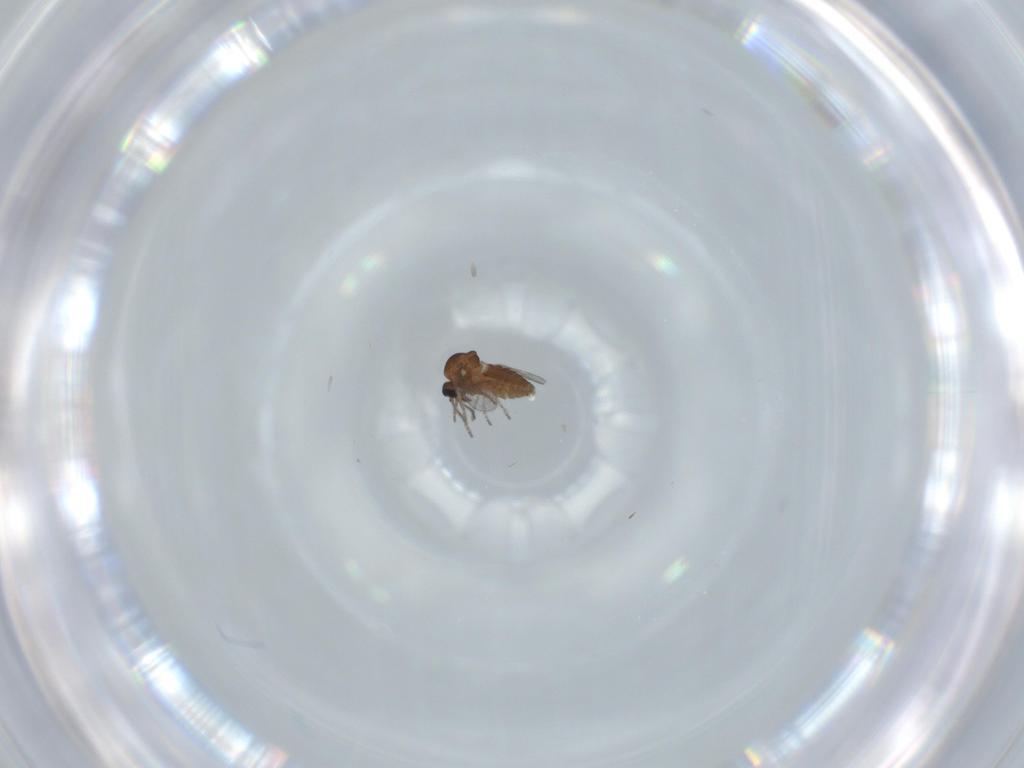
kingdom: Animalia
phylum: Arthropoda
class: Insecta
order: Diptera
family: Ceratopogonidae
